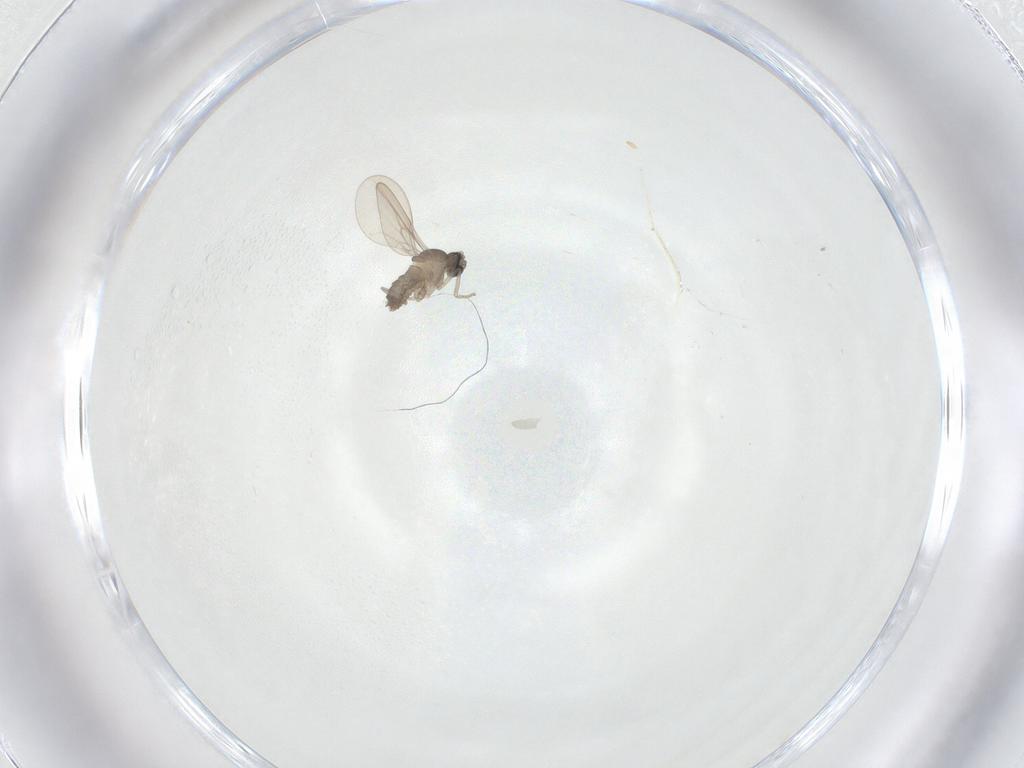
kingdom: Animalia
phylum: Arthropoda
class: Insecta
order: Diptera
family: Cecidomyiidae
